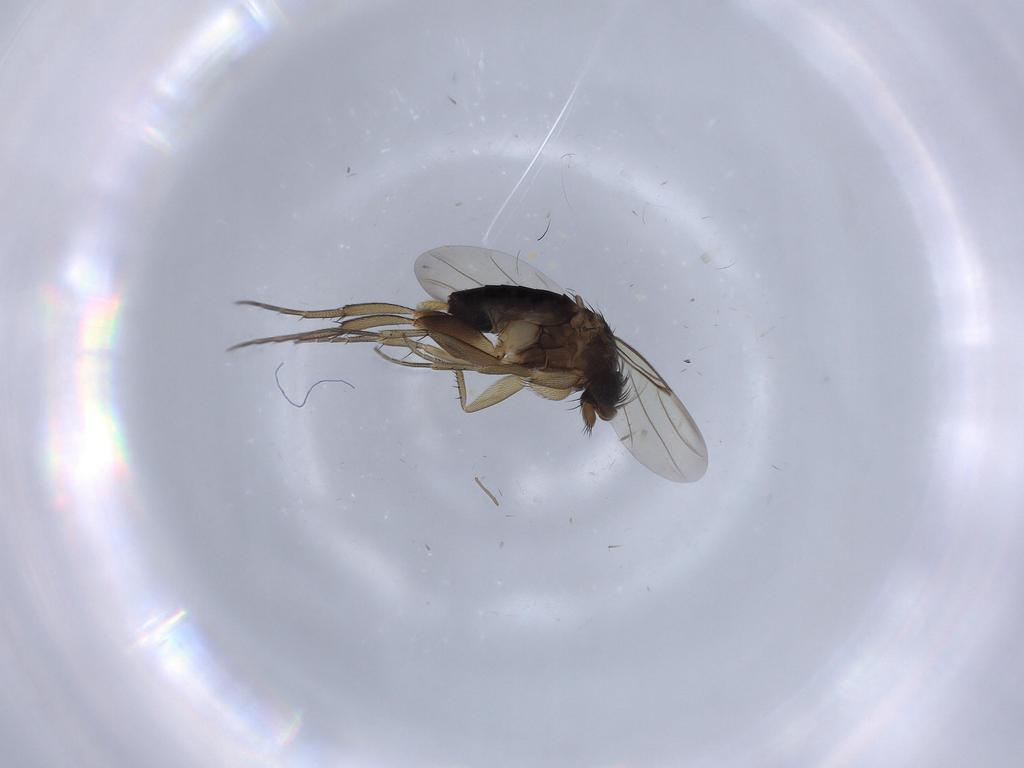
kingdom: Animalia
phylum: Arthropoda
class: Insecta
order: Diptera
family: Phoridae
